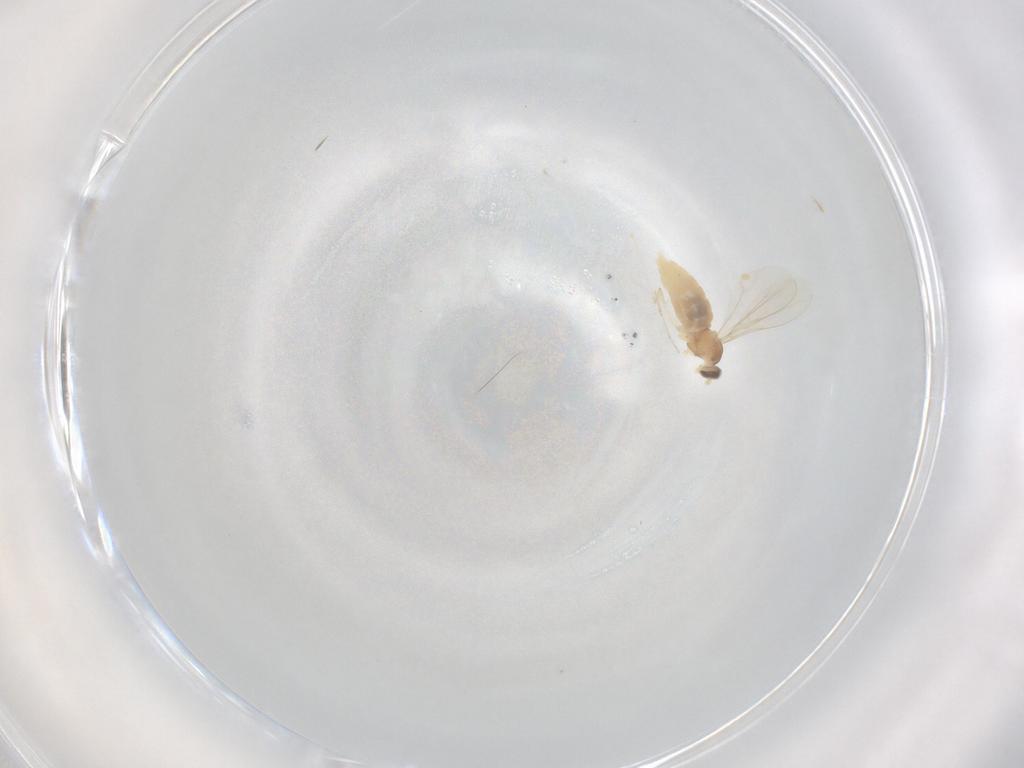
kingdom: Animalia
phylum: Arthropoda
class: Insecta
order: Diptera
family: Cecidomyiidae
